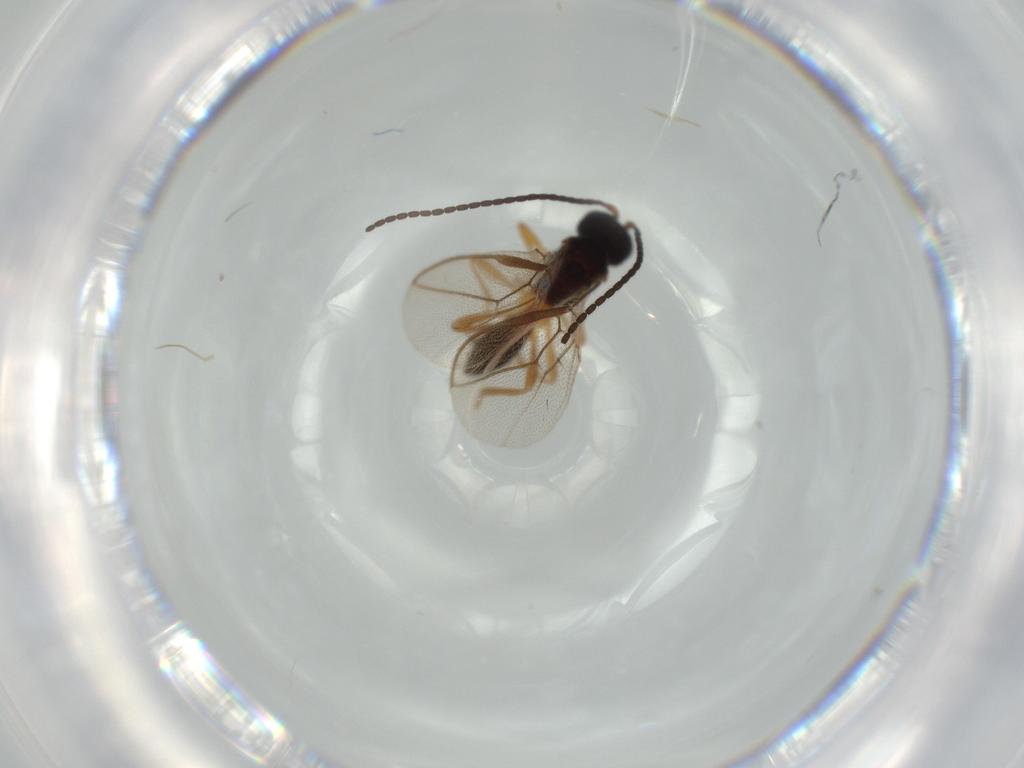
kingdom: Animalia
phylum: Arthropoda
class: Insecta
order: Hymenoptera
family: Braconidae
